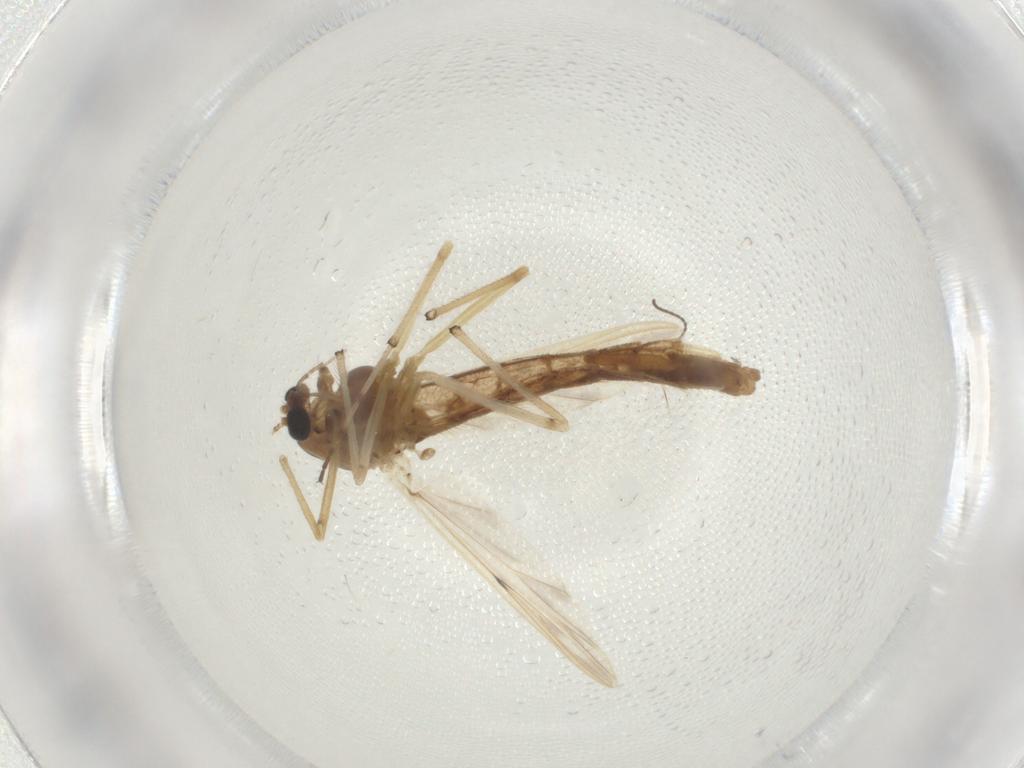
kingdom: Animalia
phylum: Arthropoda
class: Insecta
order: Diptera
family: Chironomidae
